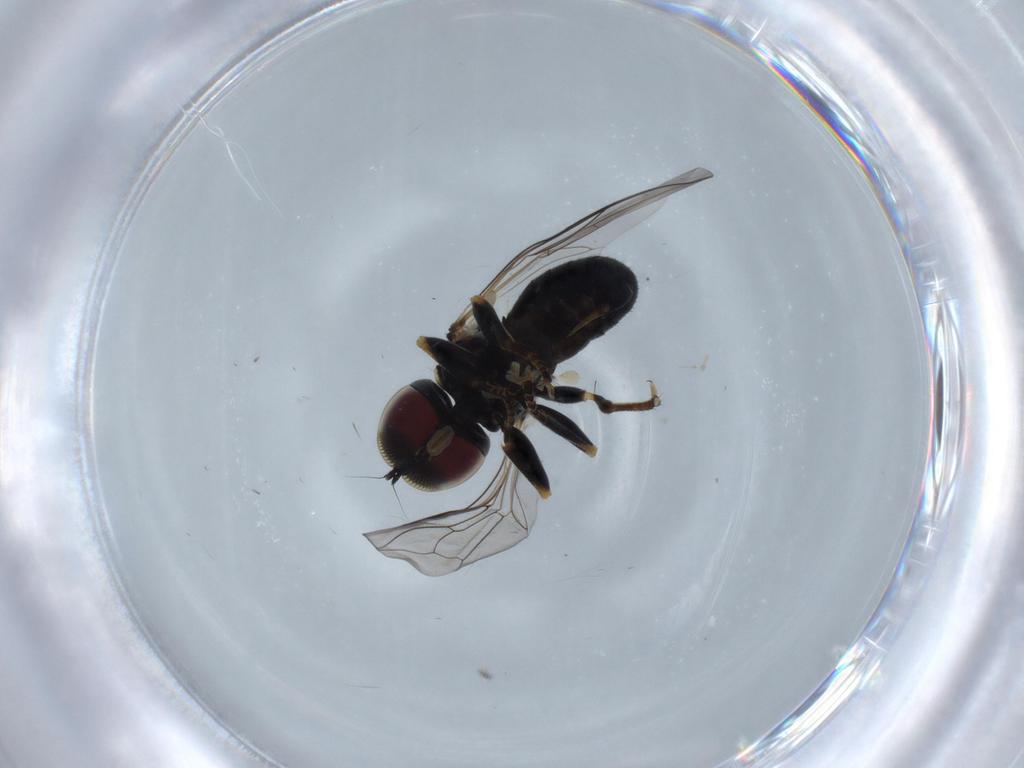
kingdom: Animalia
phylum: Arthropoda
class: Insecta
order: Diptera
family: Pipunculidae
